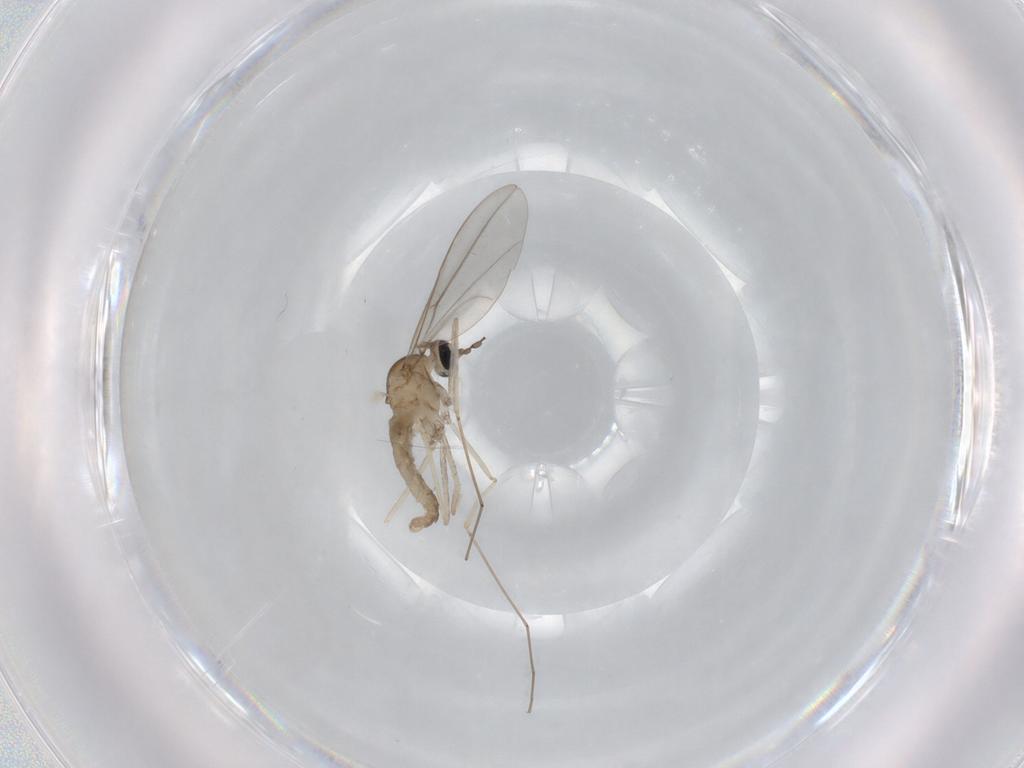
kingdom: Animalia
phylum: Arthropoda
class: Insecta
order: Diptera
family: Cecidomyiidae
